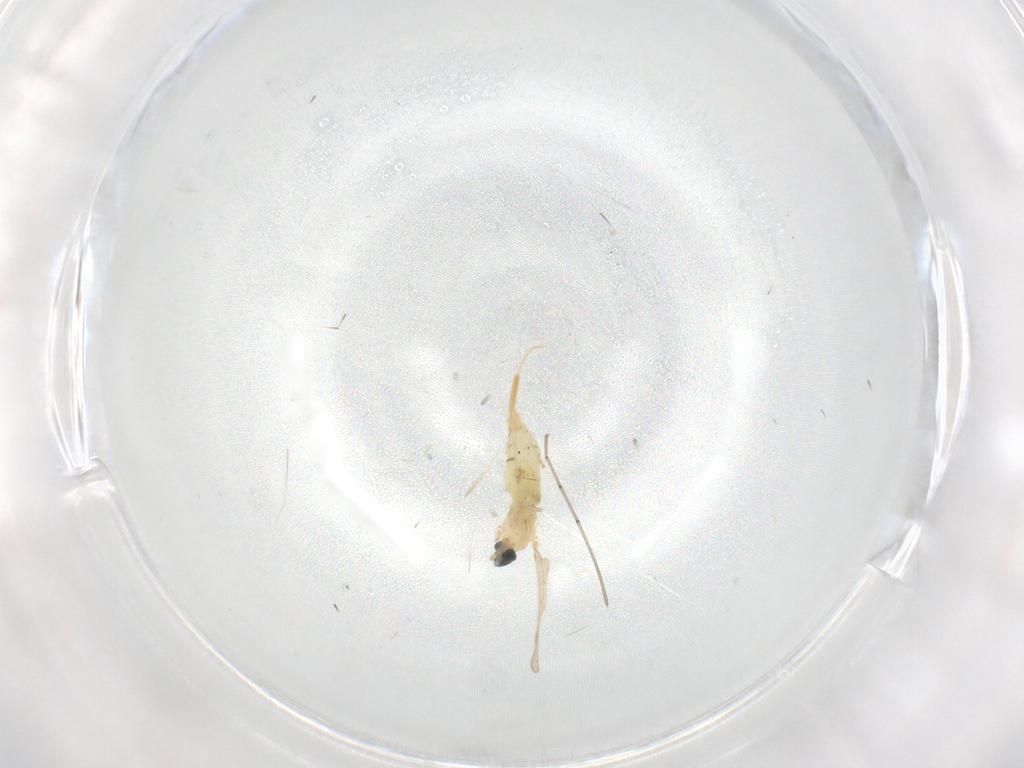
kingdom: Animalia
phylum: Arthropoda
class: Insecta
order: Diptera
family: Cecidomyiidae
